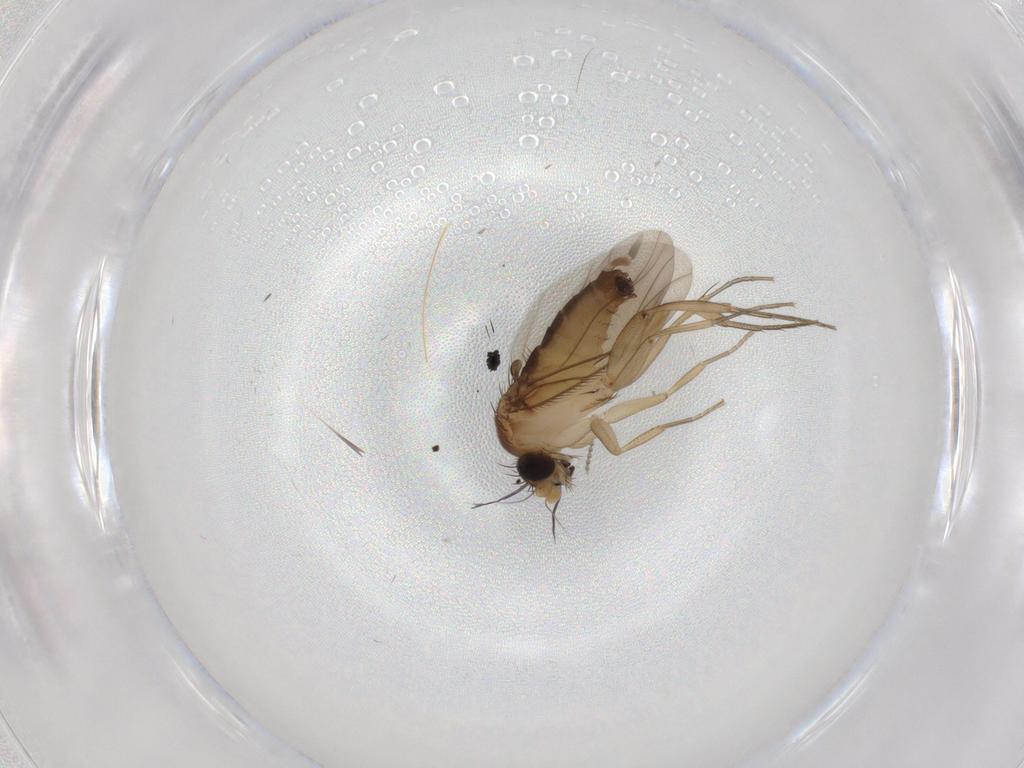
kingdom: Animalia
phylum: Arthropoda
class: Insecta
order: Diptera
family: Phoridae
